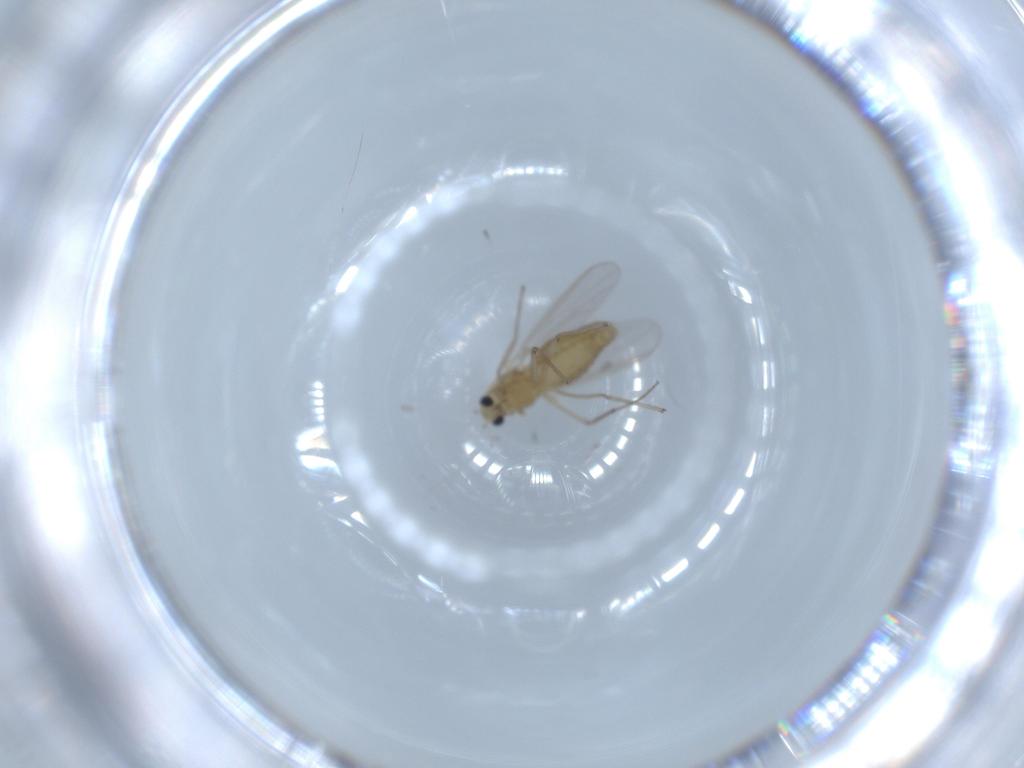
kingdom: Animalia
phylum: Arthropoda
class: Insecta
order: Diptera
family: Chironomidae
